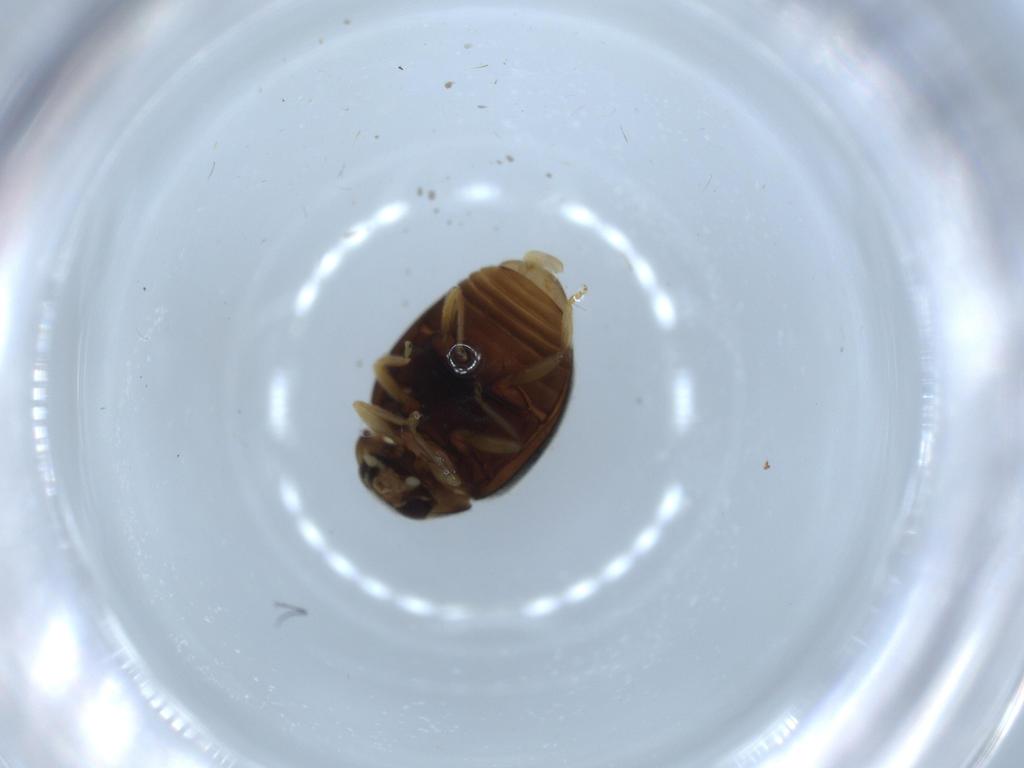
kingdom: Animalia
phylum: Arthropoda
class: Insecta
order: Coleoptera
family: Coccinellidae
